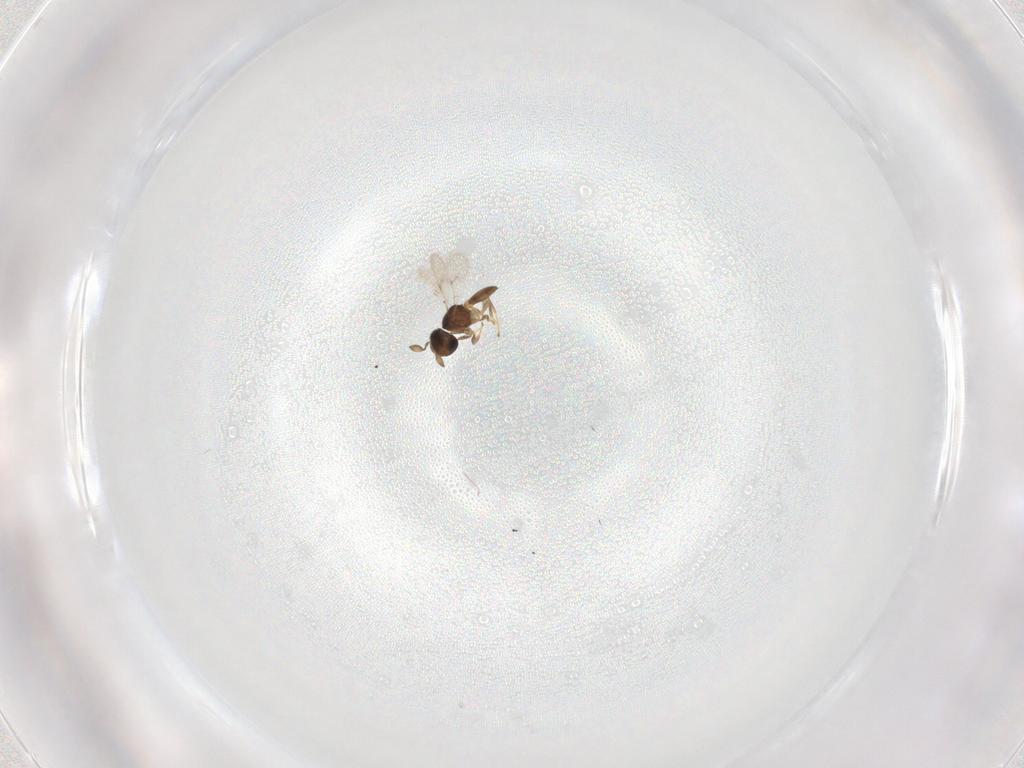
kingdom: Animalia
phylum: Arthropoda
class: Insecta
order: Hymenoptera
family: Scelionidae
